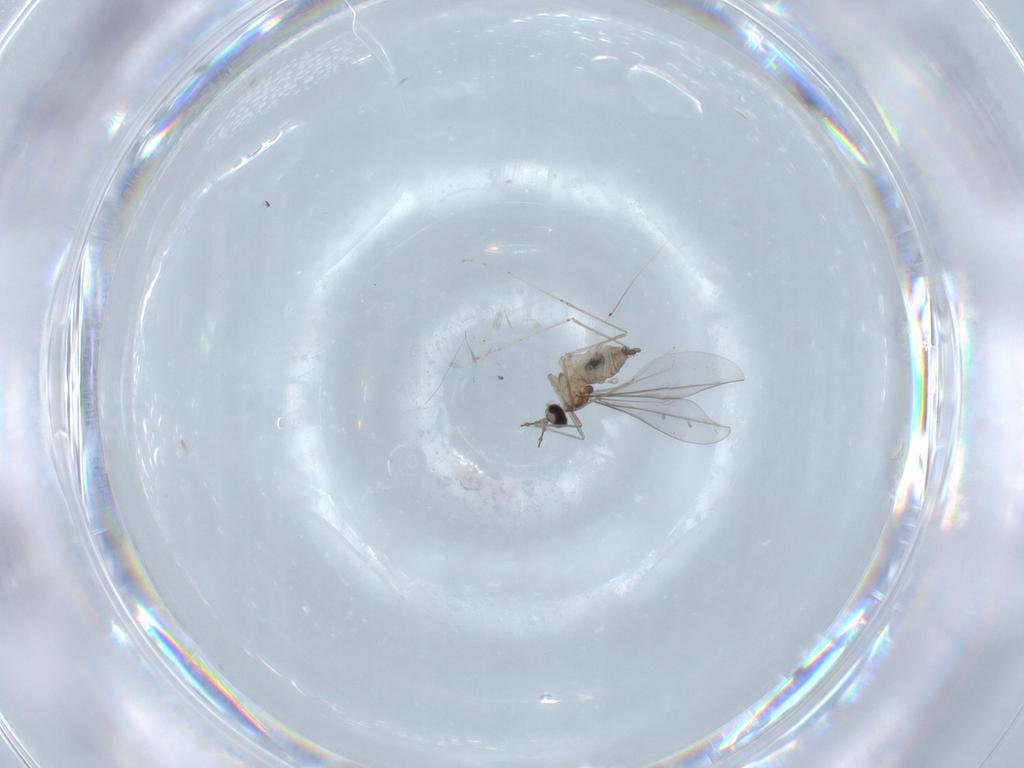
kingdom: Animalia
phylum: Arthropoda
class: Insecta
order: Diptera
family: Cecidomyiidae
